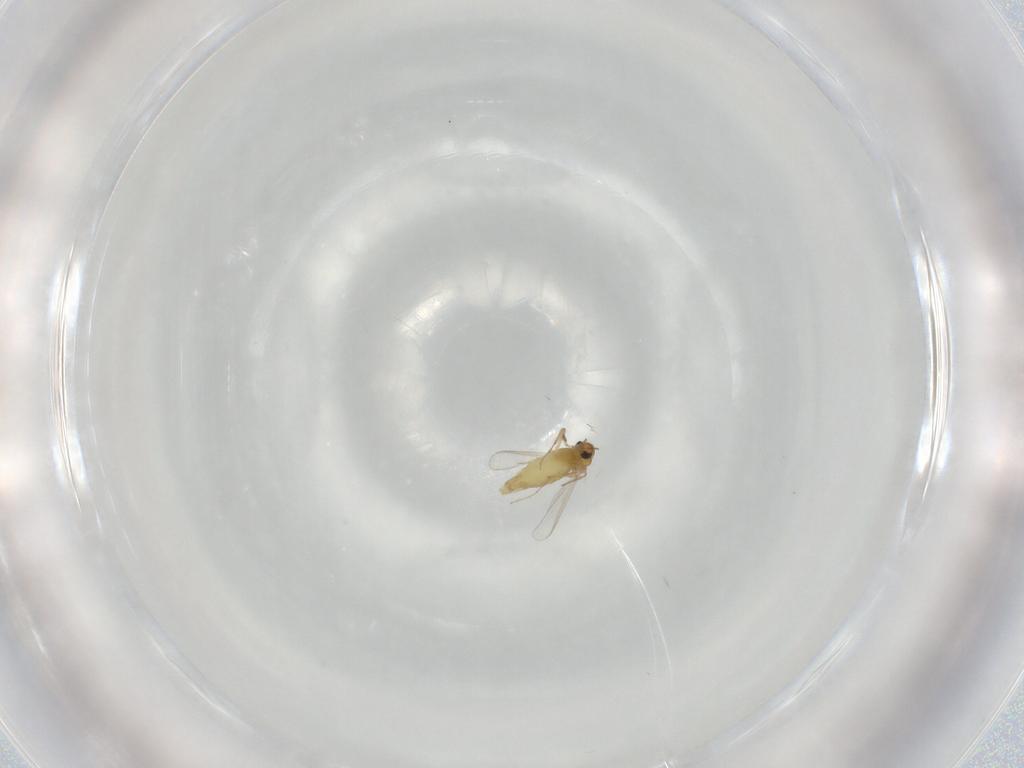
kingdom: Animalia
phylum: Arthropoda
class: Insecta
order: Diptera
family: Chironomidae
